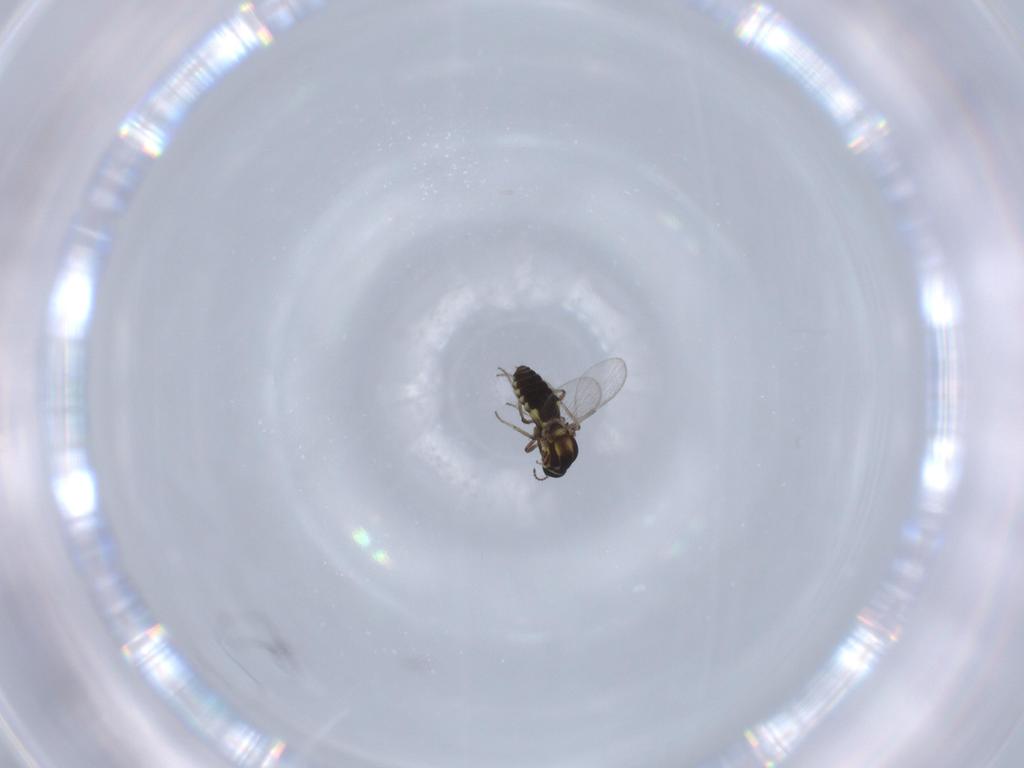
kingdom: Animalia
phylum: Arthropoda
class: Insecta
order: Diptera
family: Ceratopogonidae
